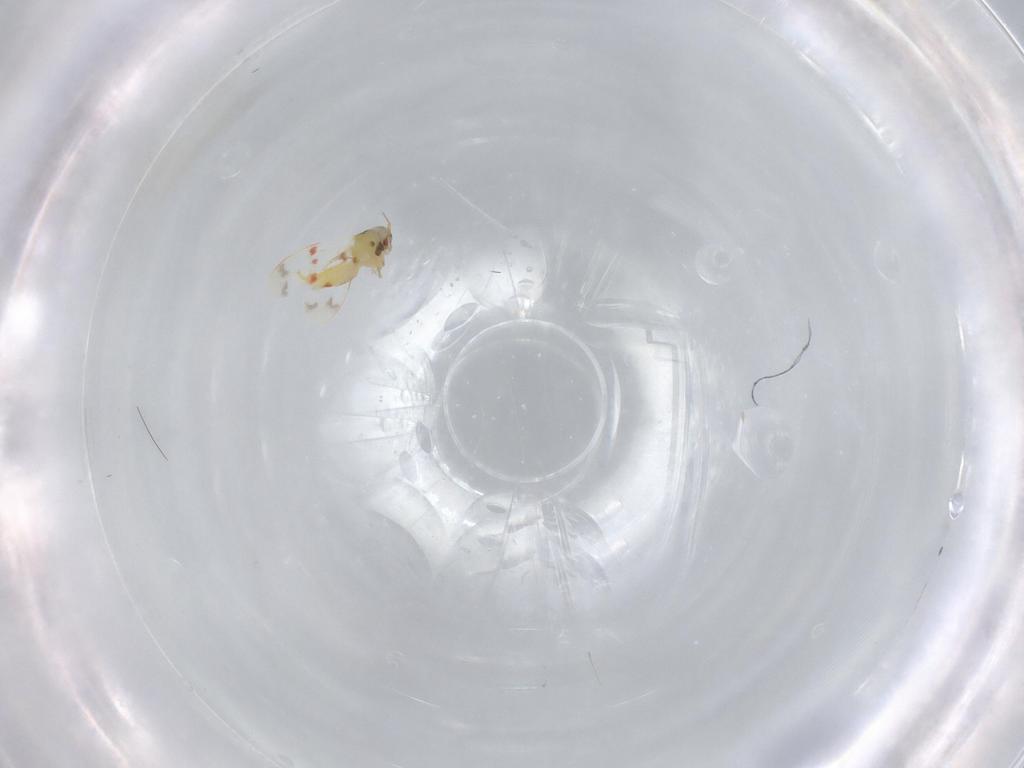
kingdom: Animalia
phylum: Arthropoda
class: Insecta
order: Hemiptera
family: Aleyrodidae
